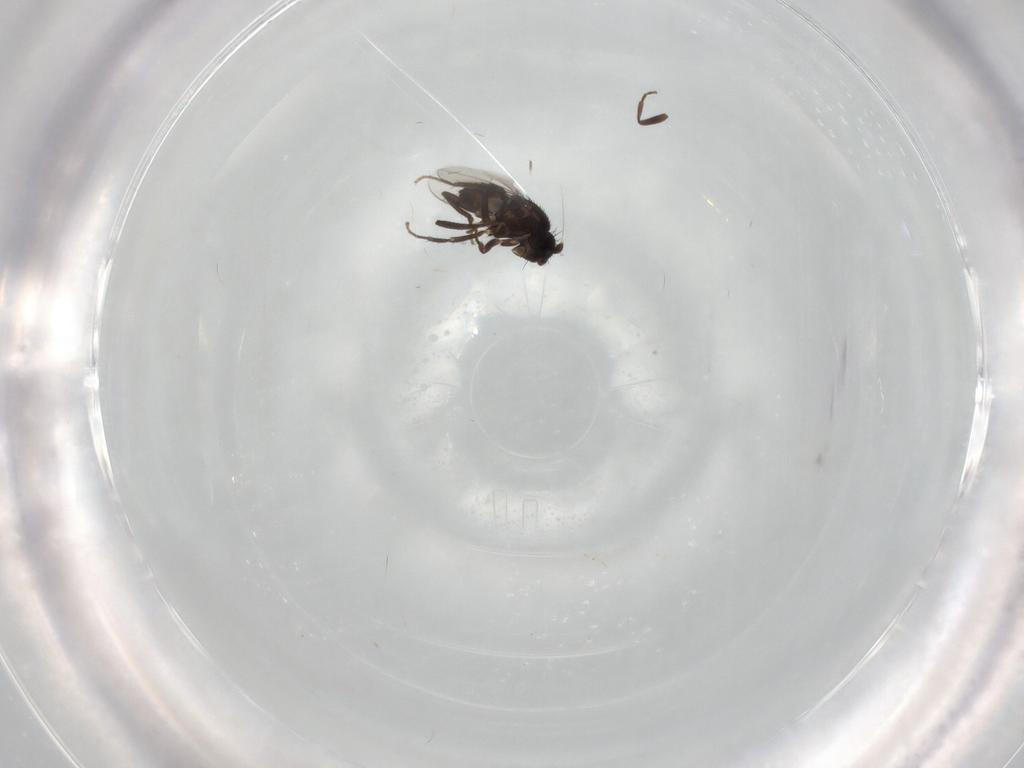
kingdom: Animalia
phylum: Arthropoda
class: Insecta
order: Diptera
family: Sphaeroceridae
